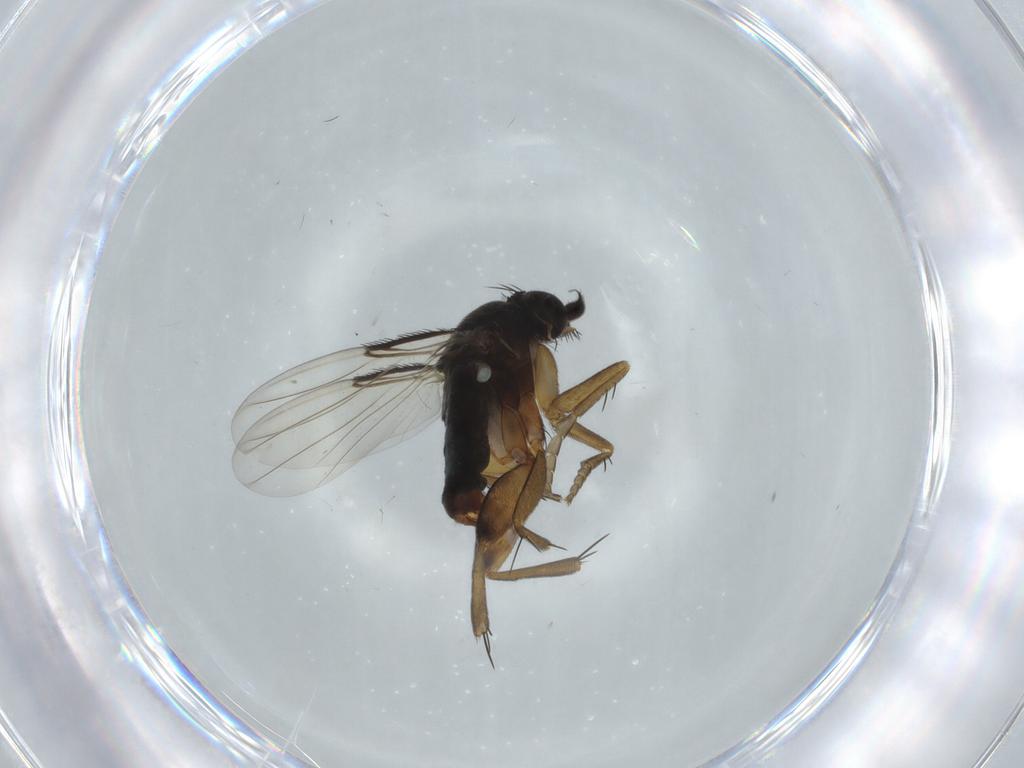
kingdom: Animalia
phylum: Arthropoda
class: Insecta
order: Diptera
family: Phoridae
